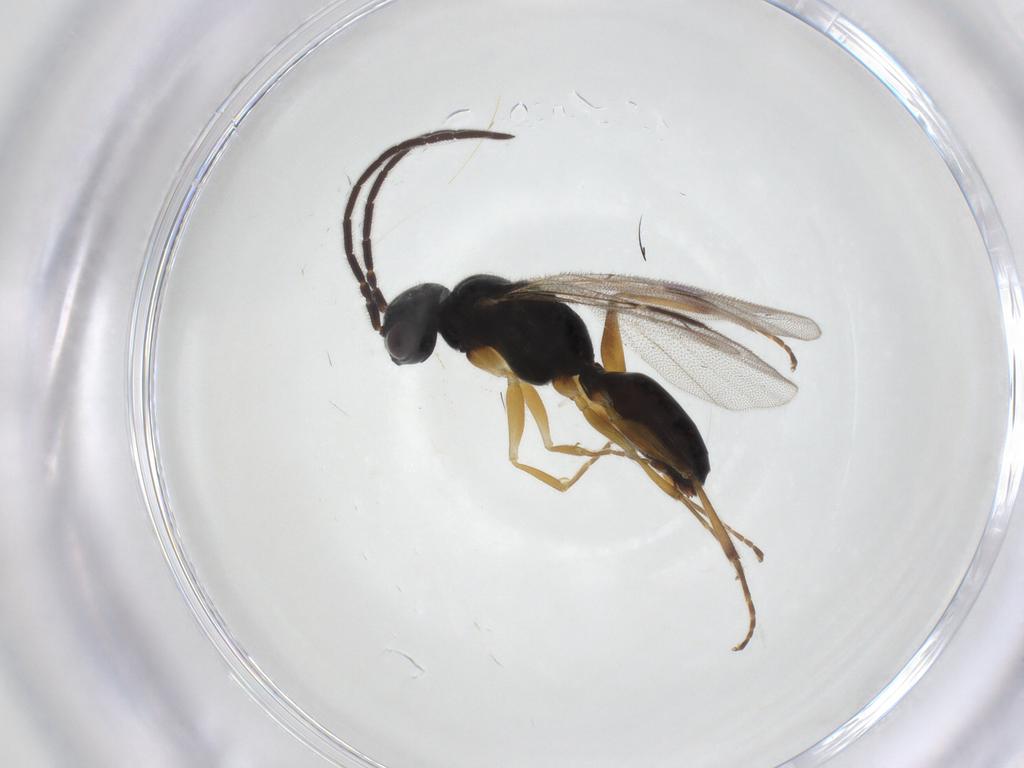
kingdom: Animalia
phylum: Arthropoda
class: Insecta
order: Hymenoptera
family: Dryinidae
